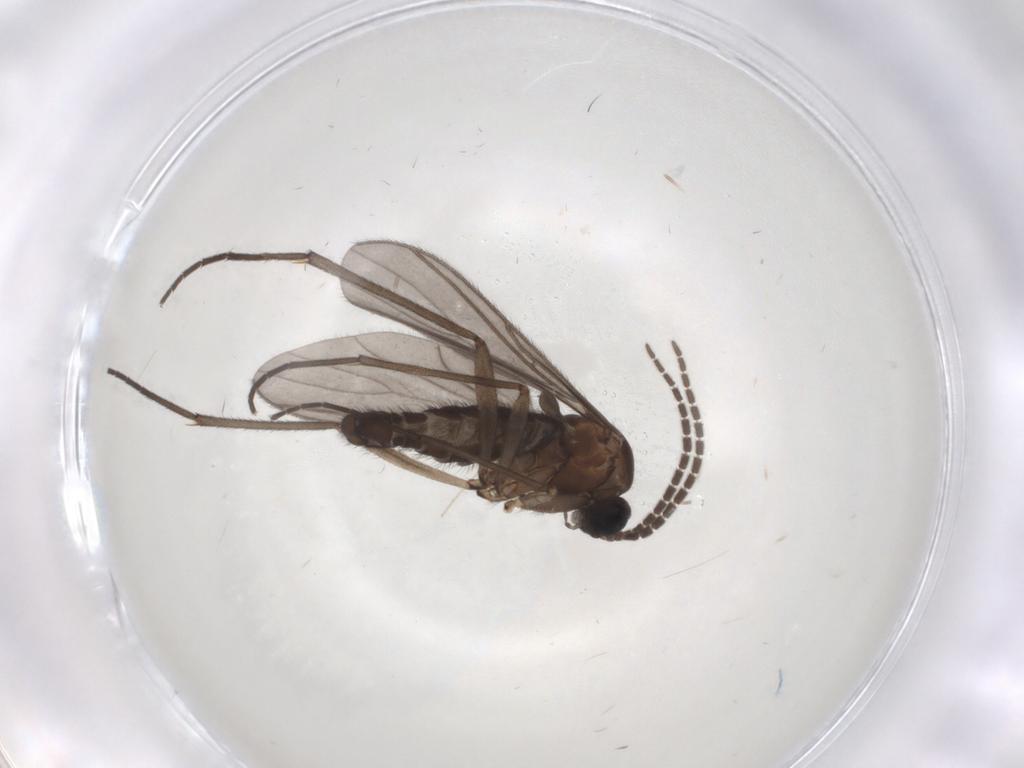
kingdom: Animalia
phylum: Arthropoda
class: Insecta
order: Diptera
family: Sciaridae
